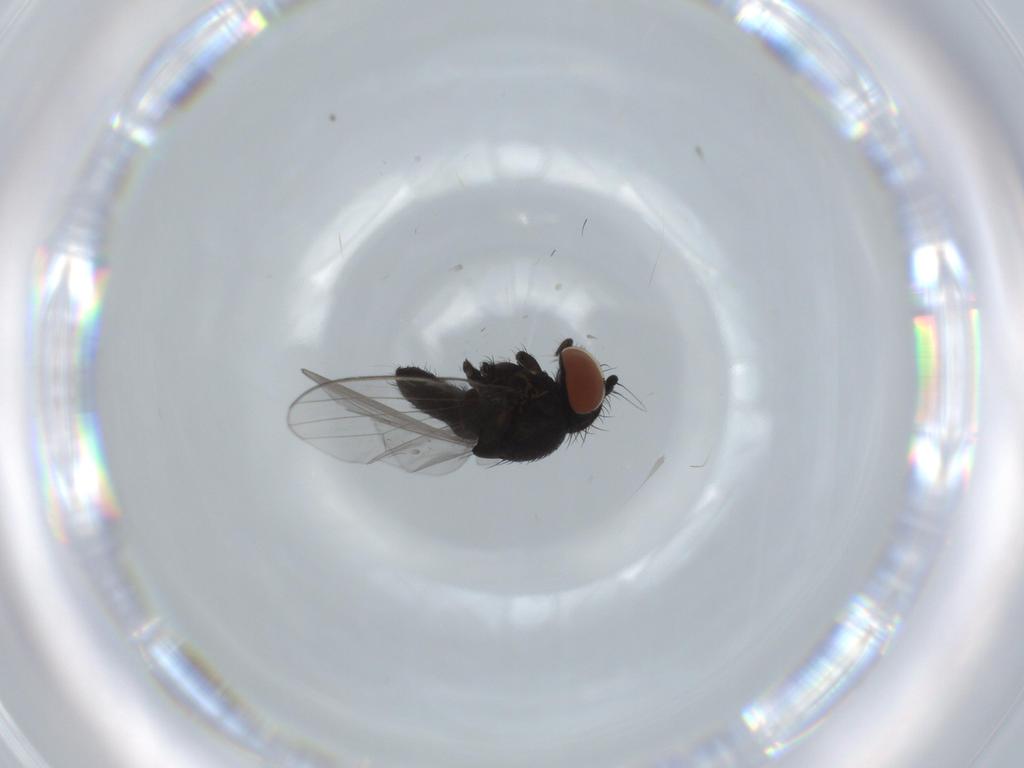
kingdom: Animalia
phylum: Arthropoda
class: Insecta
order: Diptera
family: Milichiidae
